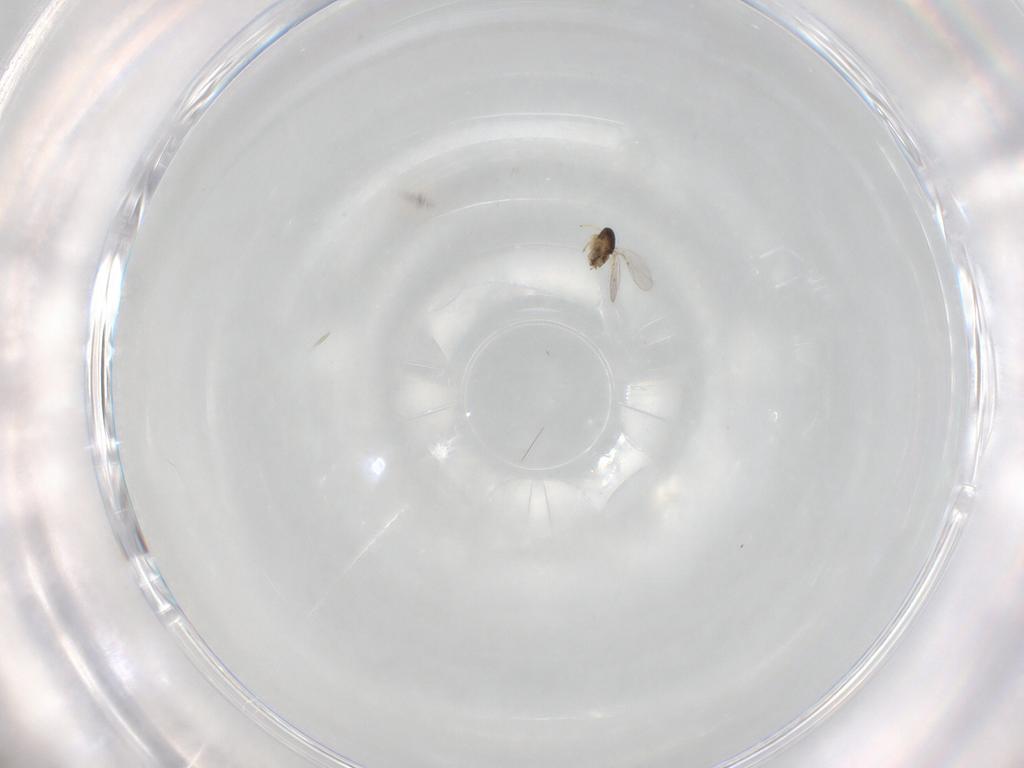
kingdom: Animalia
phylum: Arthropoda
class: Insecta
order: Hymenoptera
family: Encyrtidae
